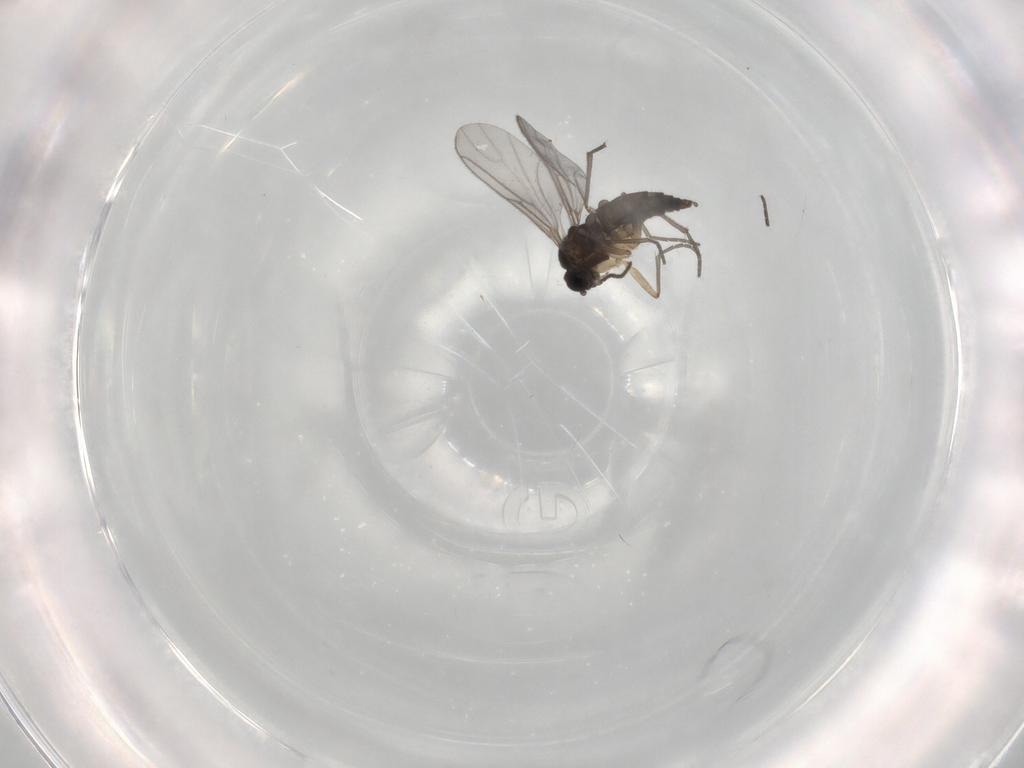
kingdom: Animalia
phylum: Arthropoda
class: Insecta
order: Diptera
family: Sciaridae
